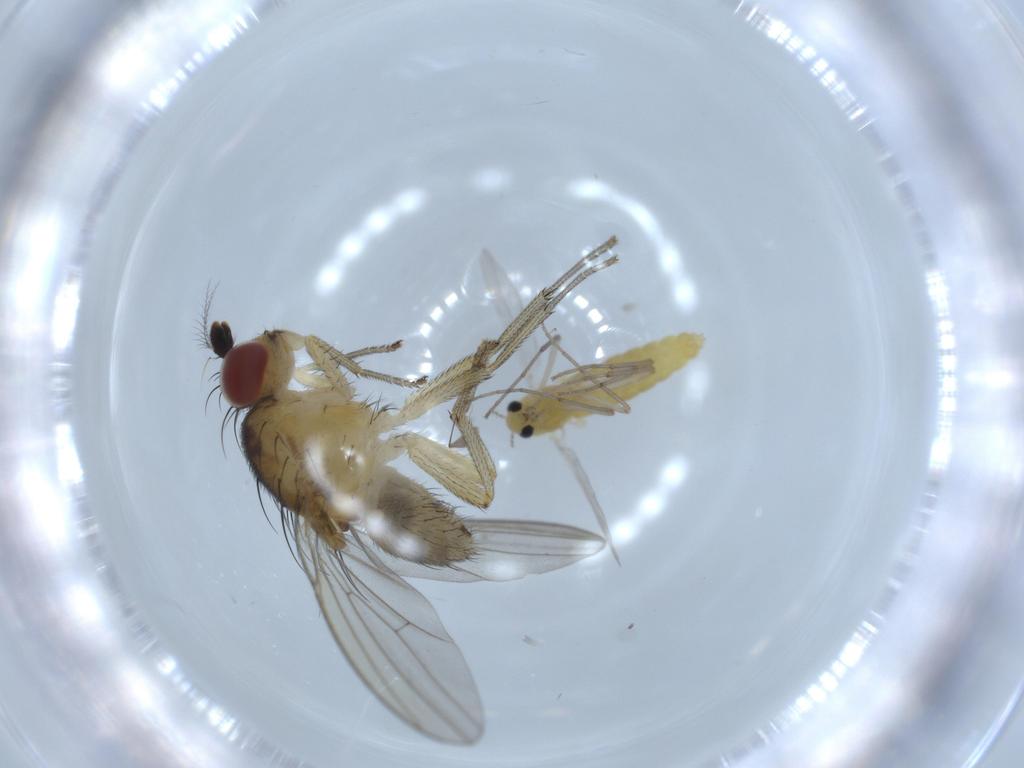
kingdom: Animalia
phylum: Arthropoda
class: Insecta
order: Diptera
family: Chironomidae
